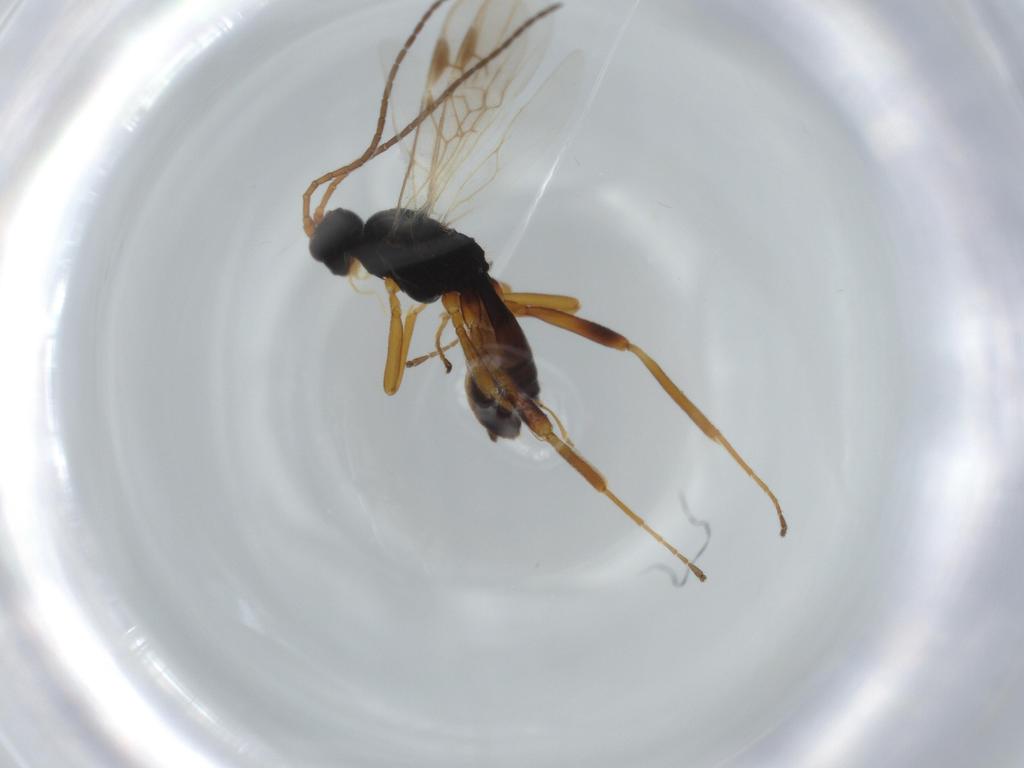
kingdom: Animalia
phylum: Arthropoda
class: Insecta
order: Hymenoptera
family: Braconidae
